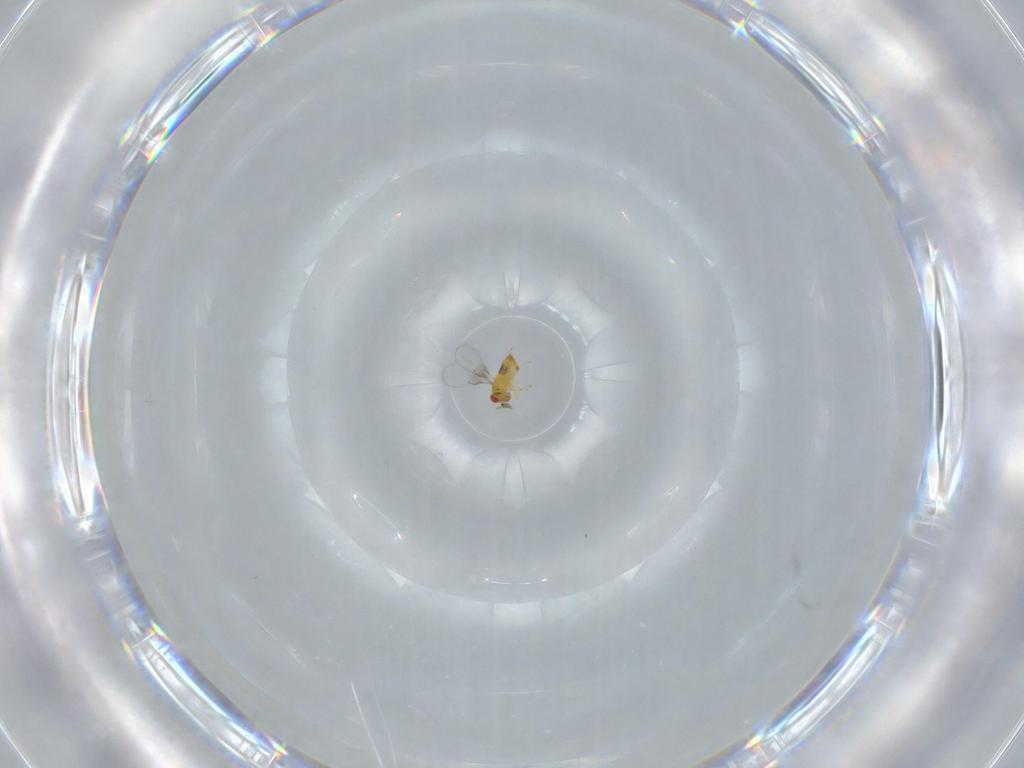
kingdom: Animalia
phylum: Arthropoda
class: Insecta
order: Hymenoptera
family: Trichogrammatidae
